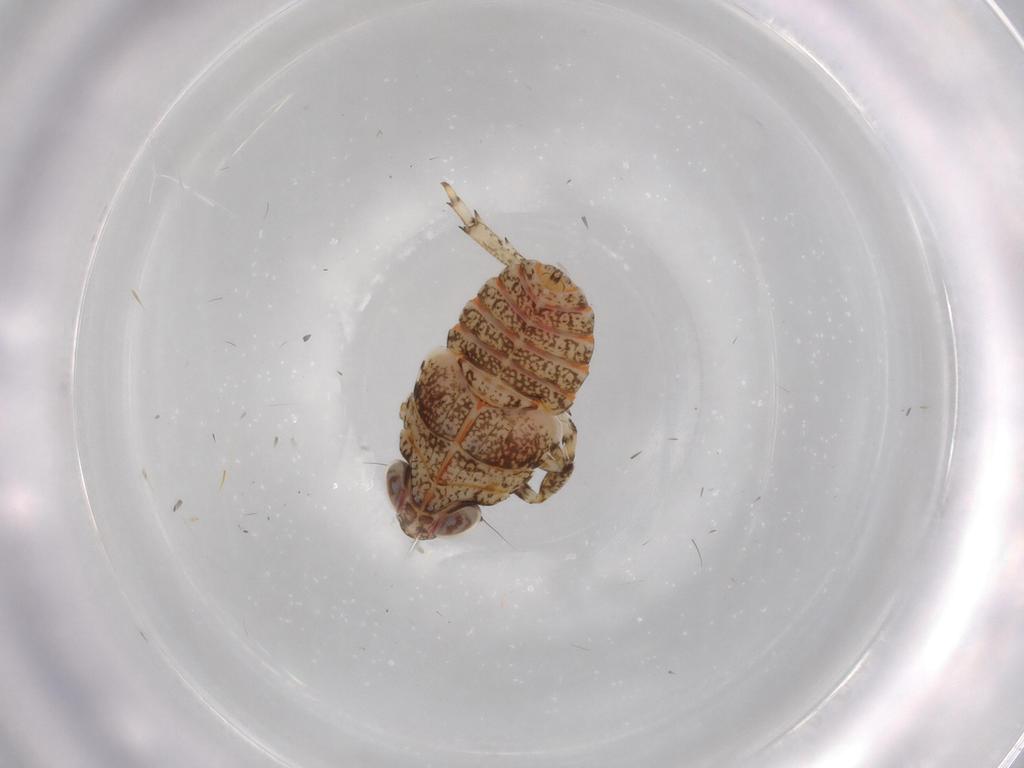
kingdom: Animalia
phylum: Arthropoda
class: Insecta
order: Hemiptera
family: Issidae
